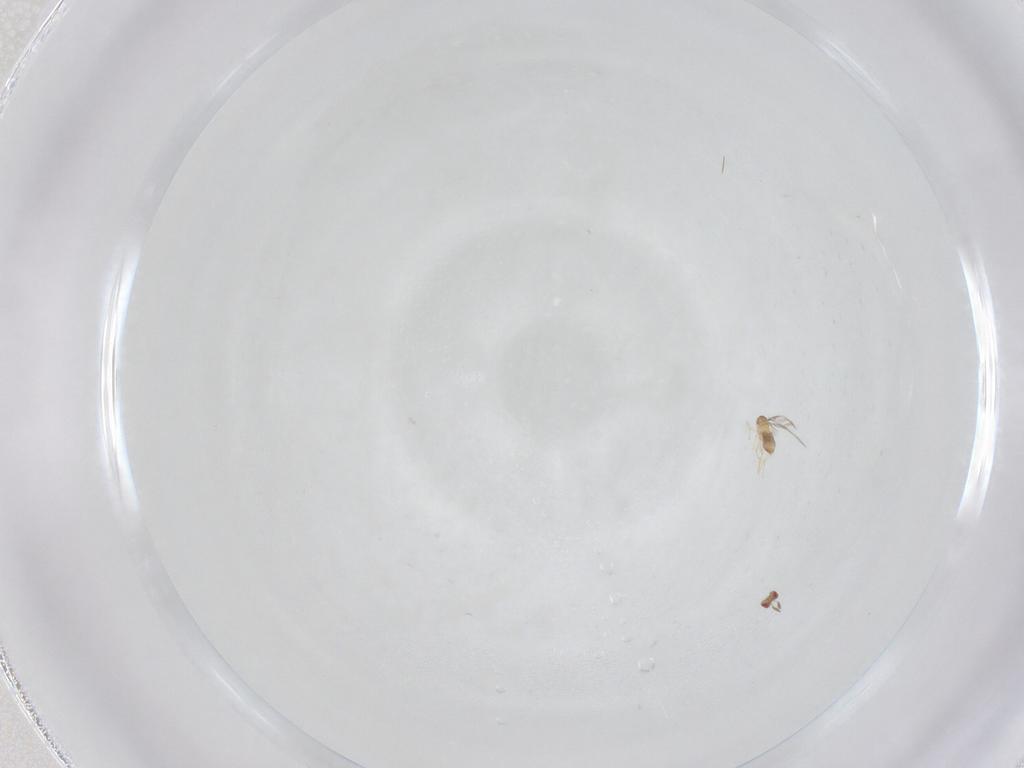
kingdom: Animalia
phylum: Arthropoda
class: Insecta
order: Hymenoptera
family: Trichogrammatidae
